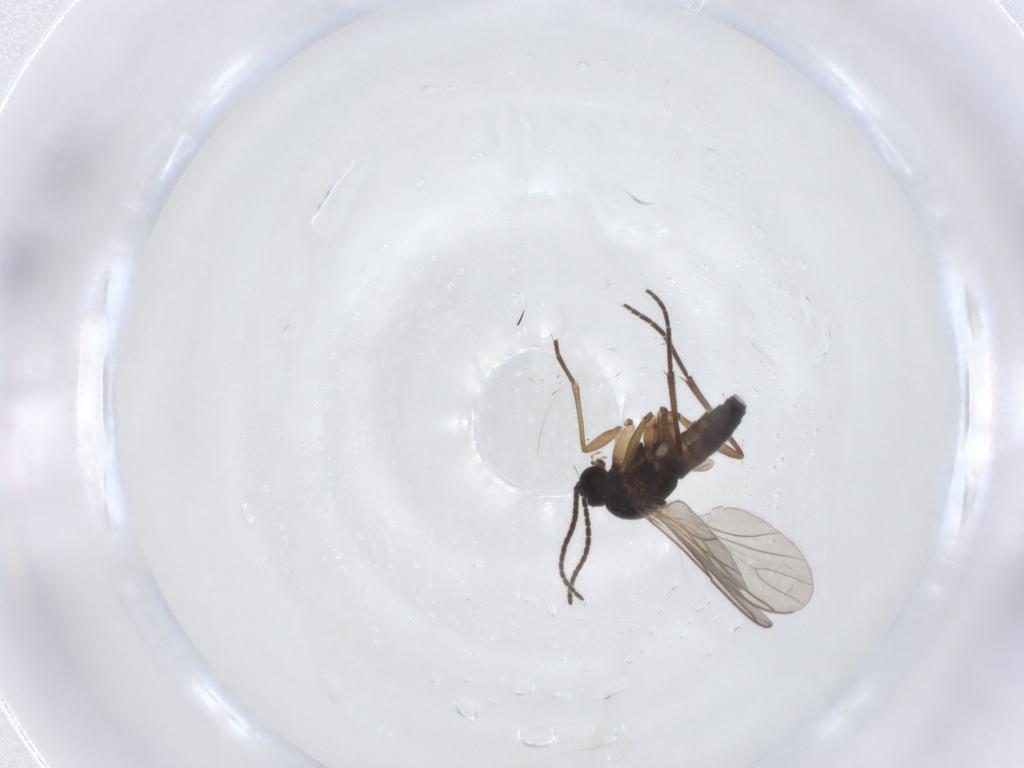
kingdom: Animalia
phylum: Arthropoda
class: Insecta
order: Diptera
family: Sciaridae
